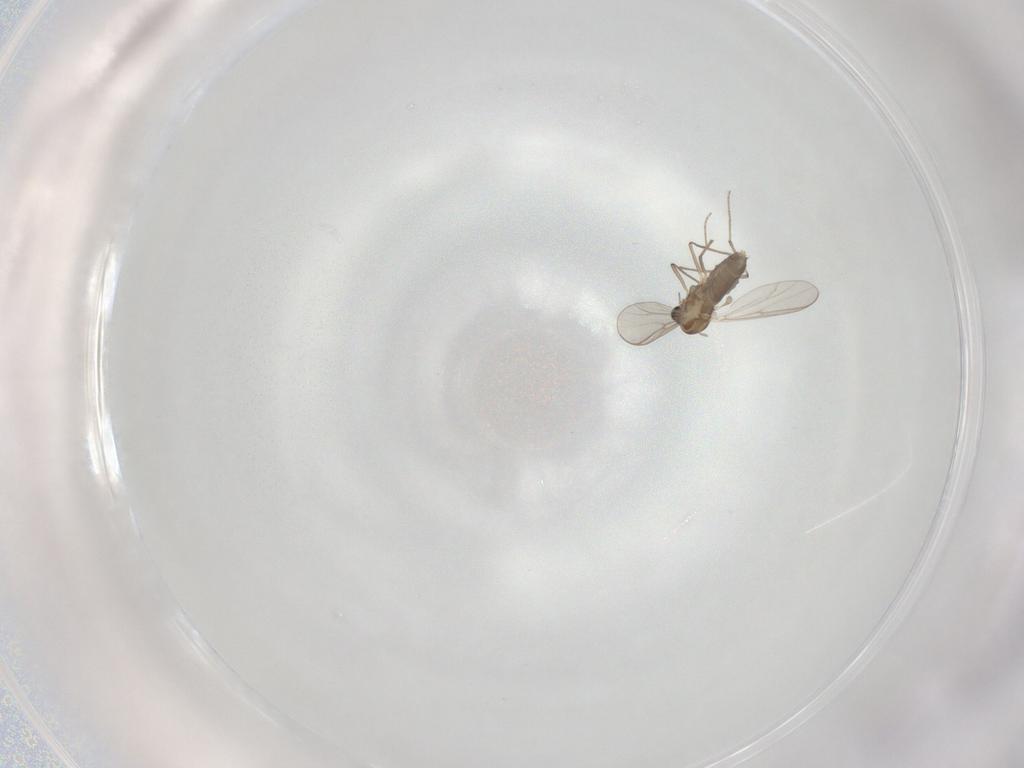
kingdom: Animalia
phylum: Arthropoda
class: Insecta
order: Diptera
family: Chironomidae
